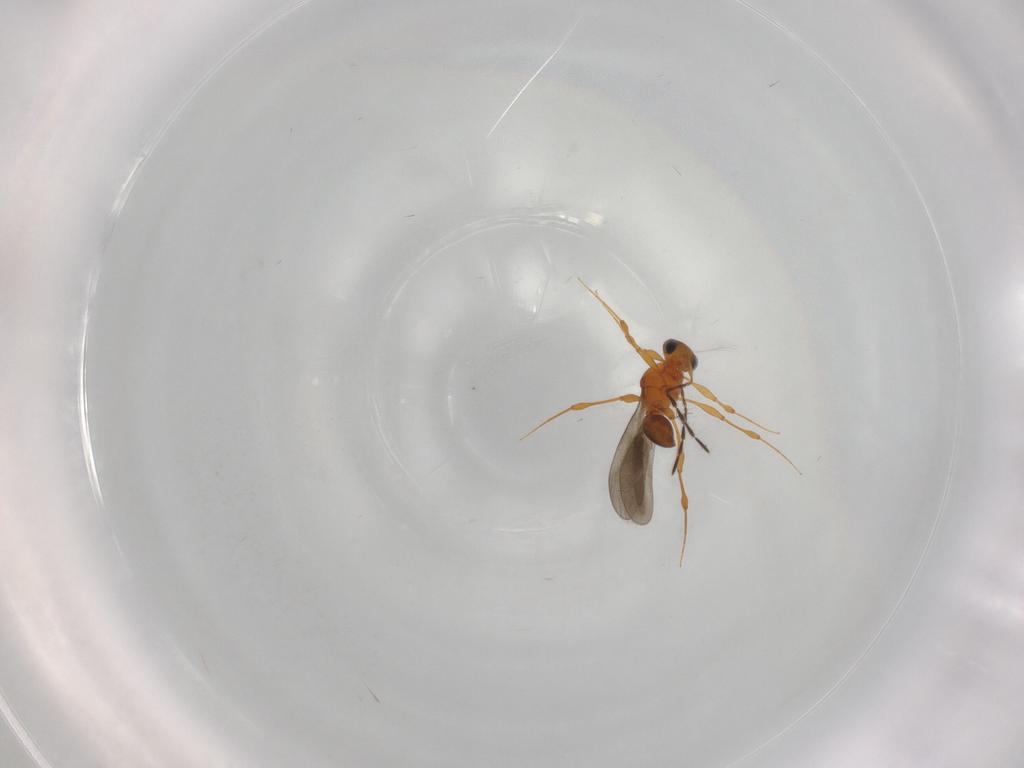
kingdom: Animalia
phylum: Arthropoda
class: Insecta
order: Hymenoptera
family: Platygastridae
